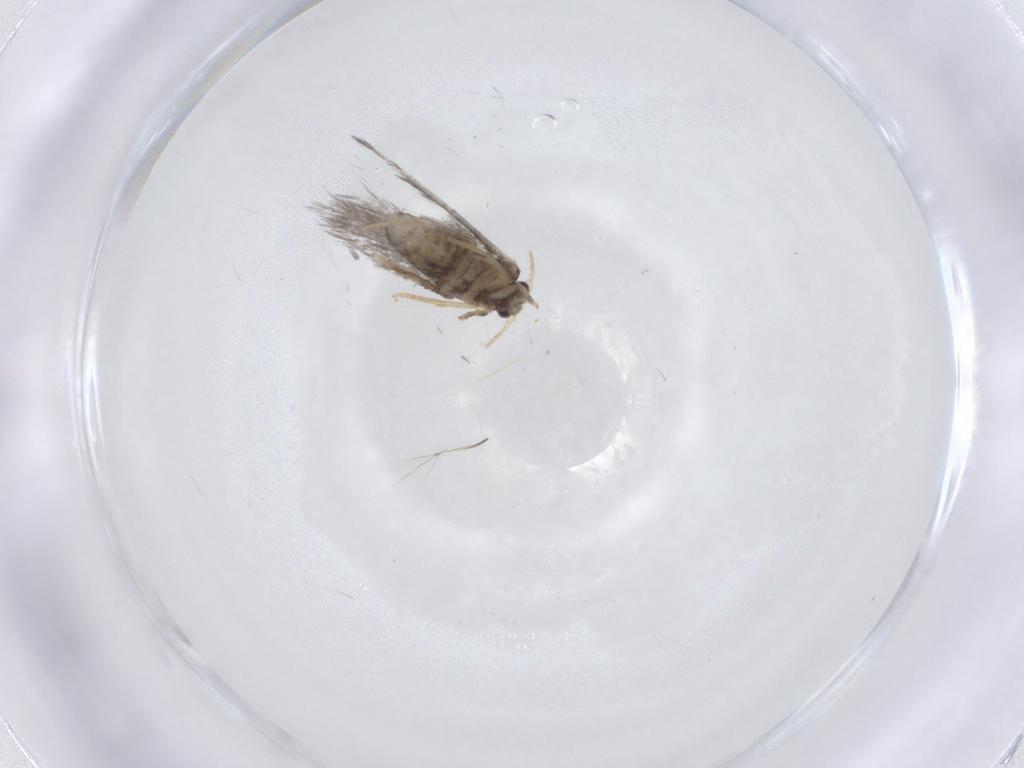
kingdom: Animalia
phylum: Arthropoda
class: Insecta
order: Lepidoptera
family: Nepticulidae
